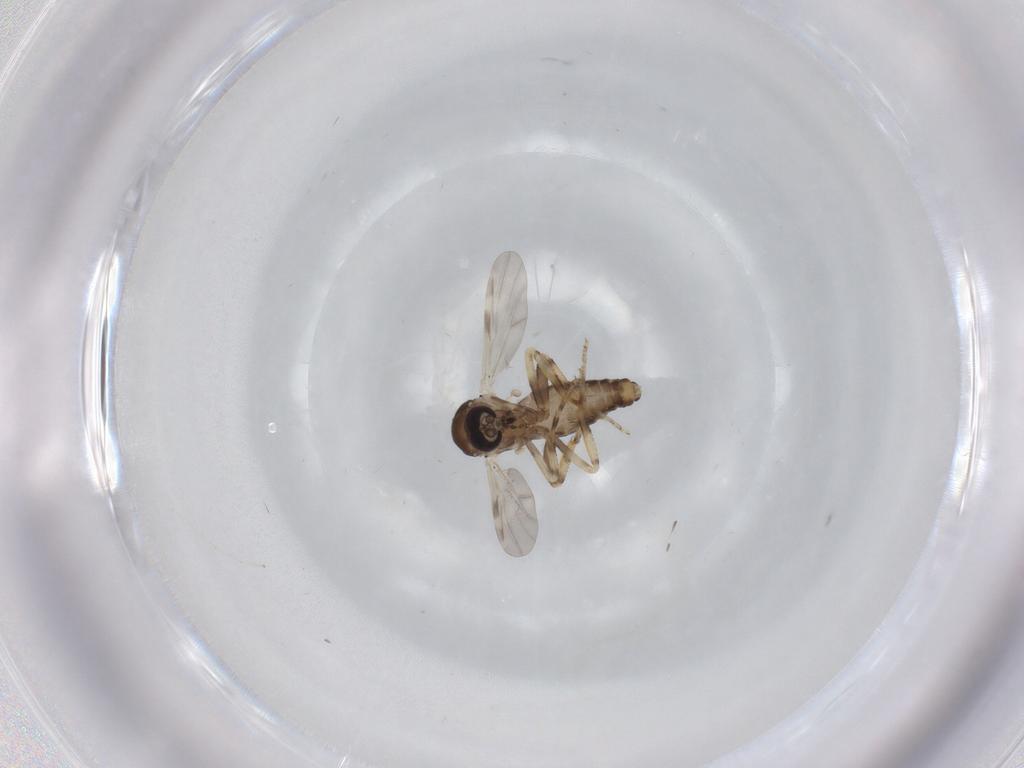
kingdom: Animalia
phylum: Arthropoda
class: Insecta
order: Diptera
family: Ceratopogonidae
